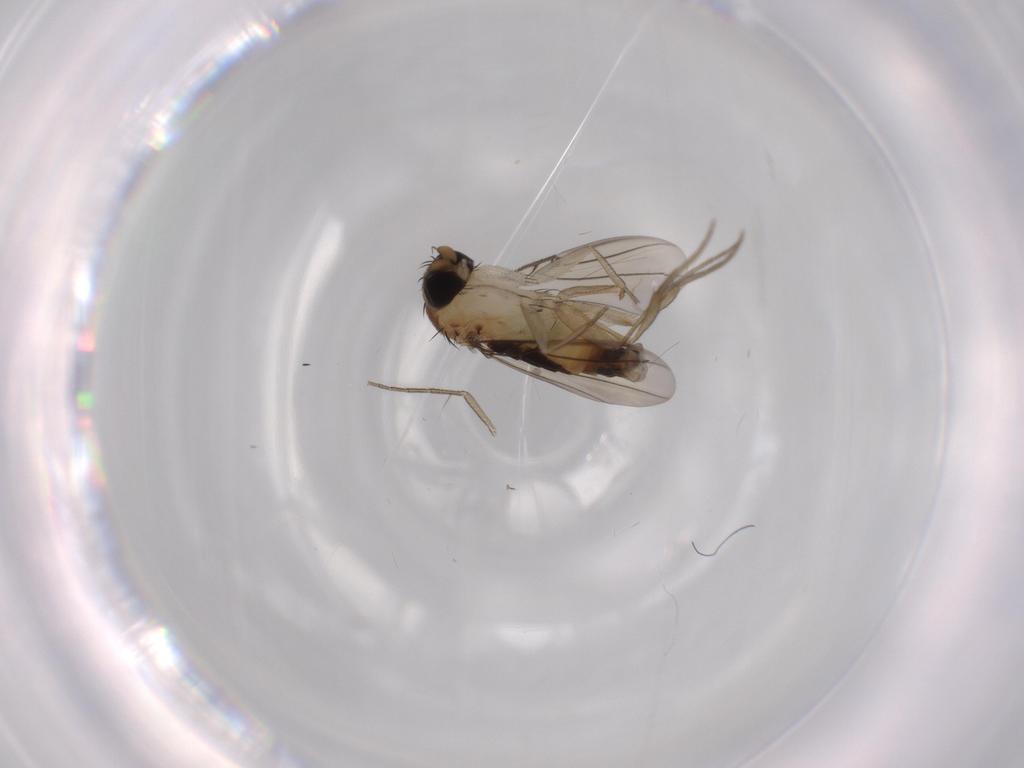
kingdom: Animalia
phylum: Arthropoda
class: Insecta
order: Diptera
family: Phoridae
